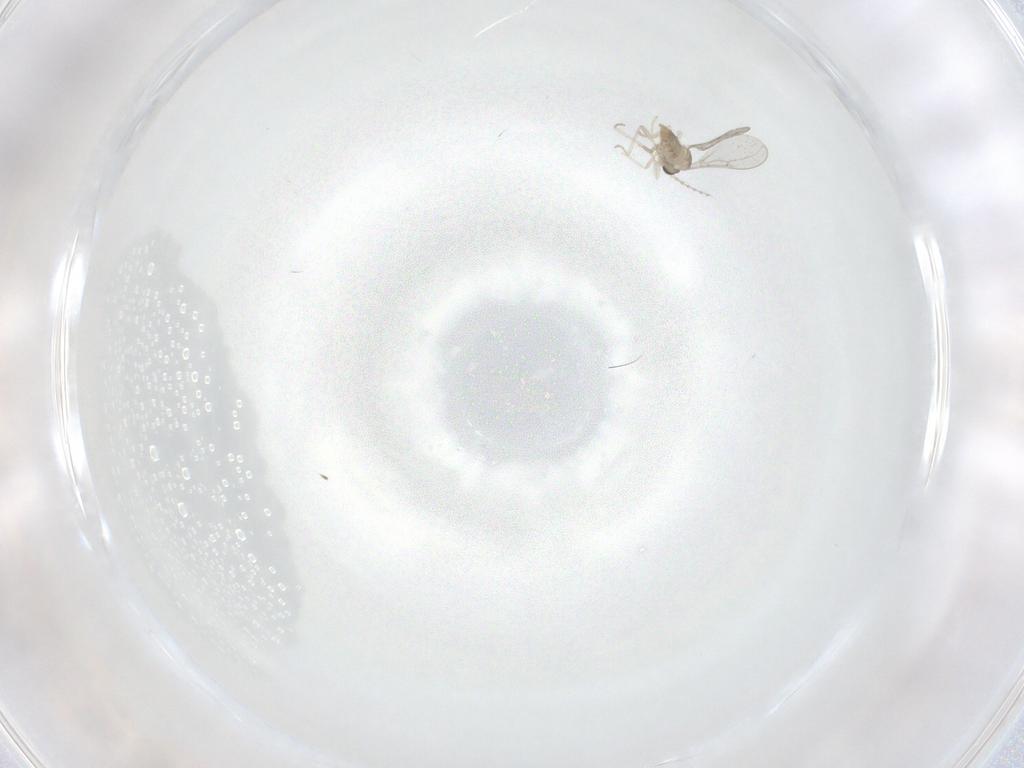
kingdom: Animalia
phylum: Arthropoda
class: Insecta
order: Diptera
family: Cecidomyiidae
